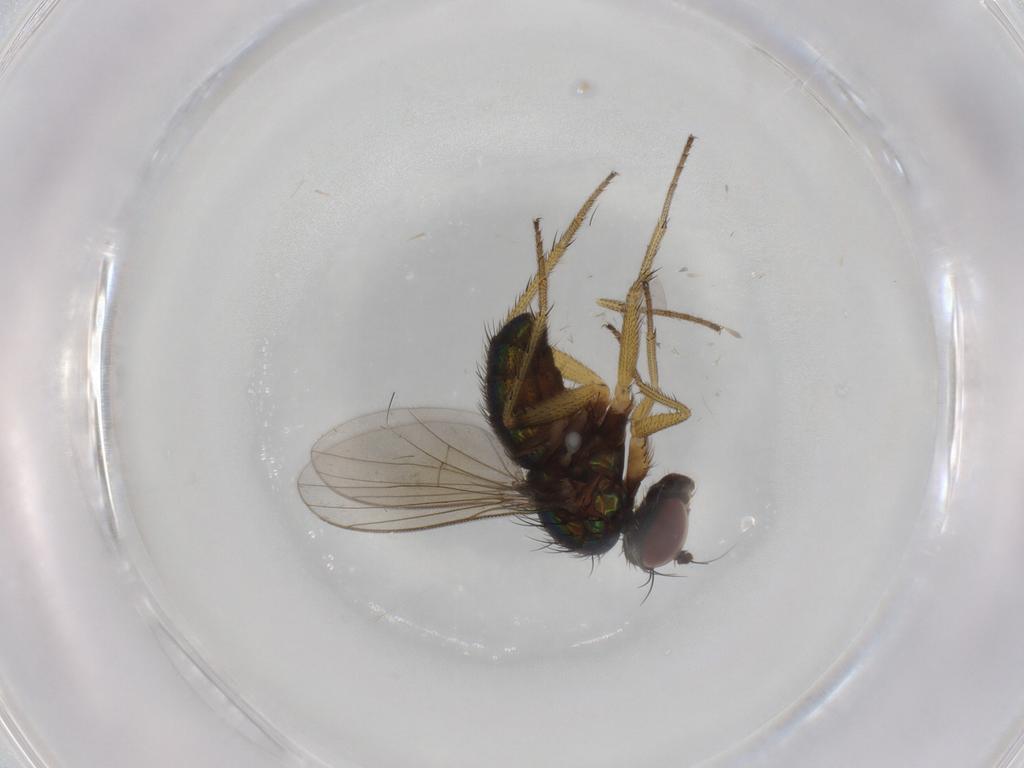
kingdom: Animalia
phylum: Arthropoda
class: Insecta
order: Diptera
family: Dolichopodidae
